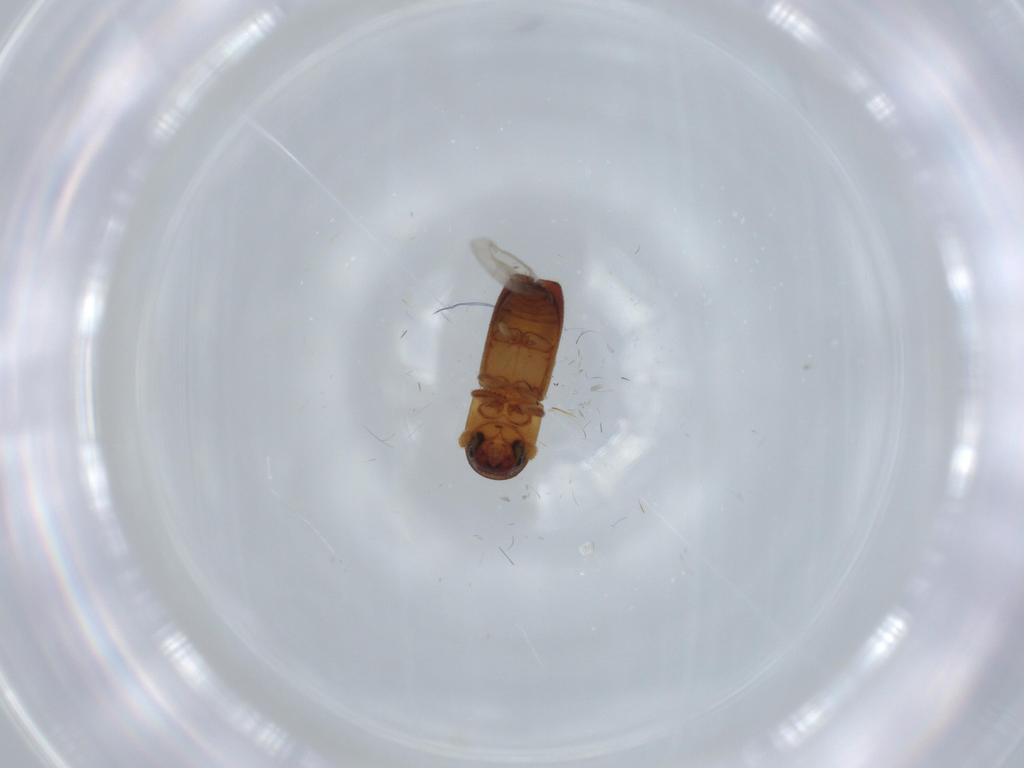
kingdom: Animalia
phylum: Arthropoda
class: Insecta
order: Coleoptera
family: Curculionidae
